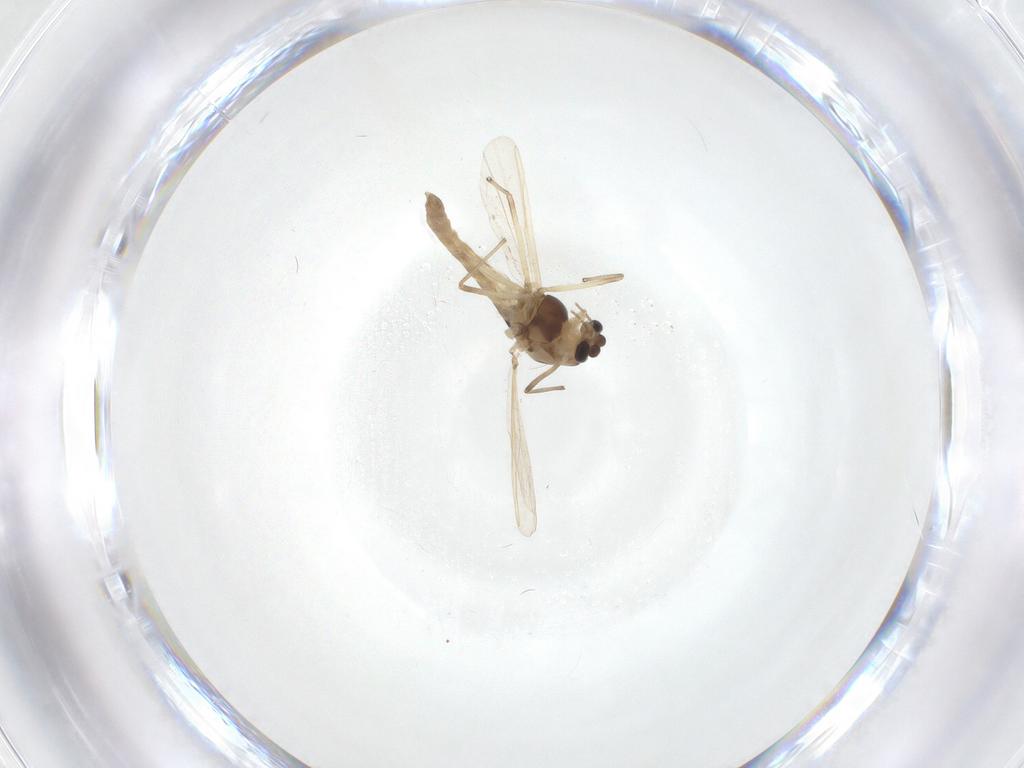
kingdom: Animalia
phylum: Arthropoda
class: Insecta
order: Diptera
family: Chironomidae
